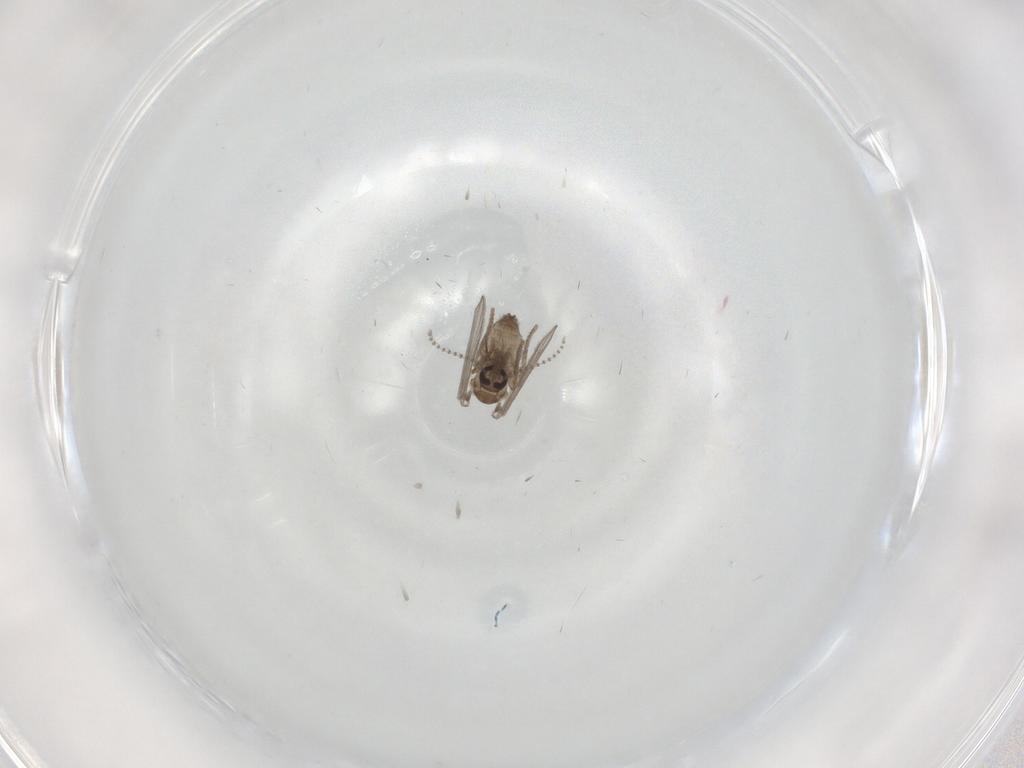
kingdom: Animalia
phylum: Arthropoda
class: Insecta
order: Diptera
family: Psychodidae
